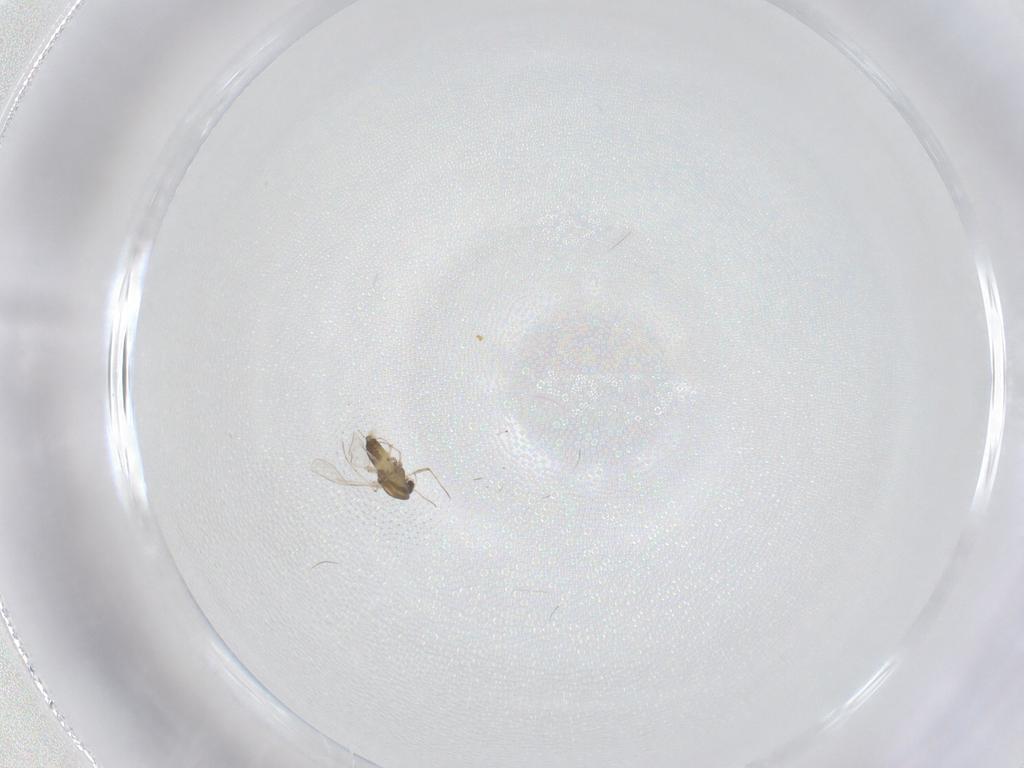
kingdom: Animalia
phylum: Arthropoda
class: Insecta
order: Diptera
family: Chironomidae
